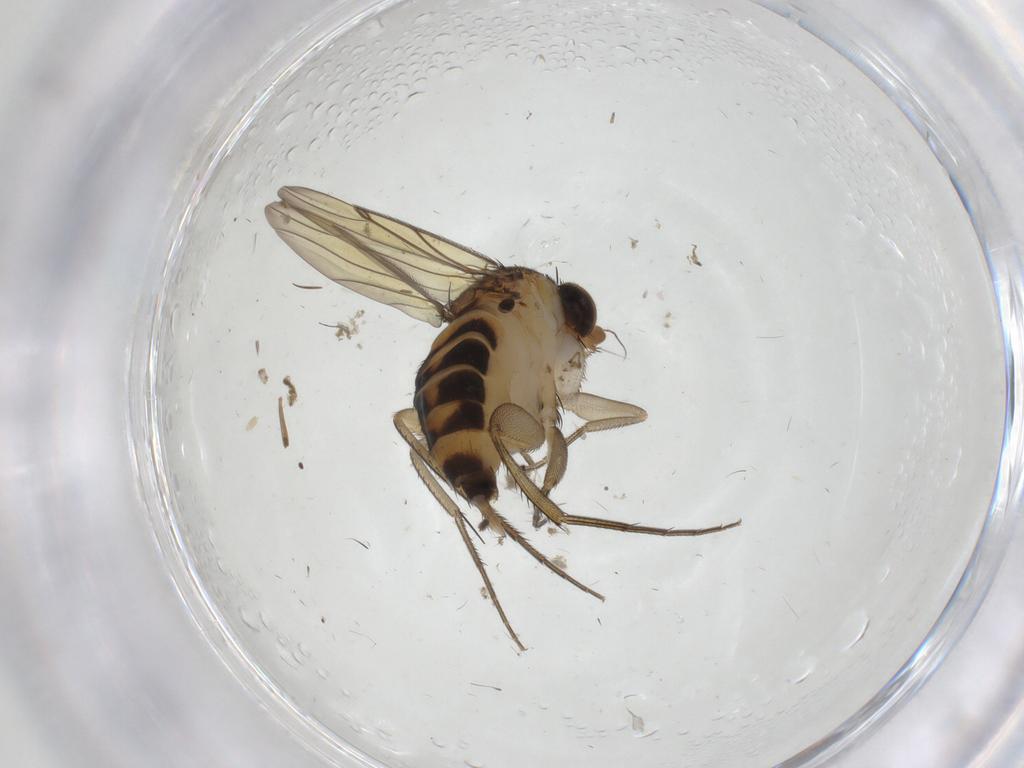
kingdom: Animalia
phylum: Arthropoda
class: Insecta
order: Diptera
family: Phoridae
